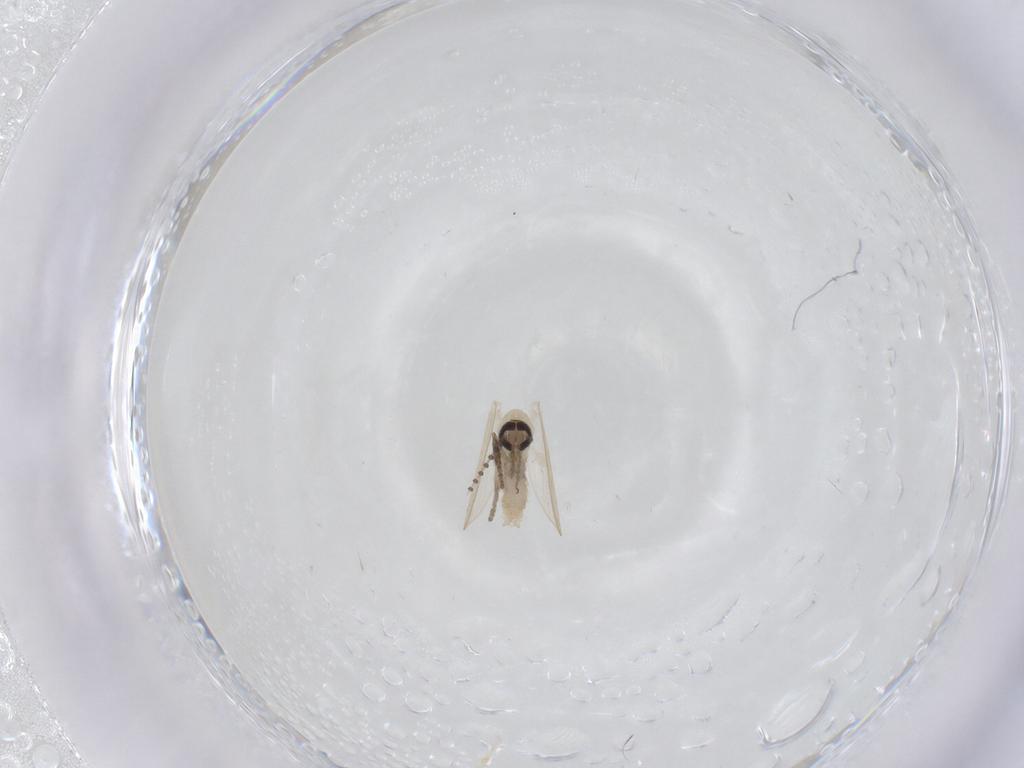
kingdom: Animalia
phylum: Arthropoda
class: Insecta
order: Diptera
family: Psychodidae
